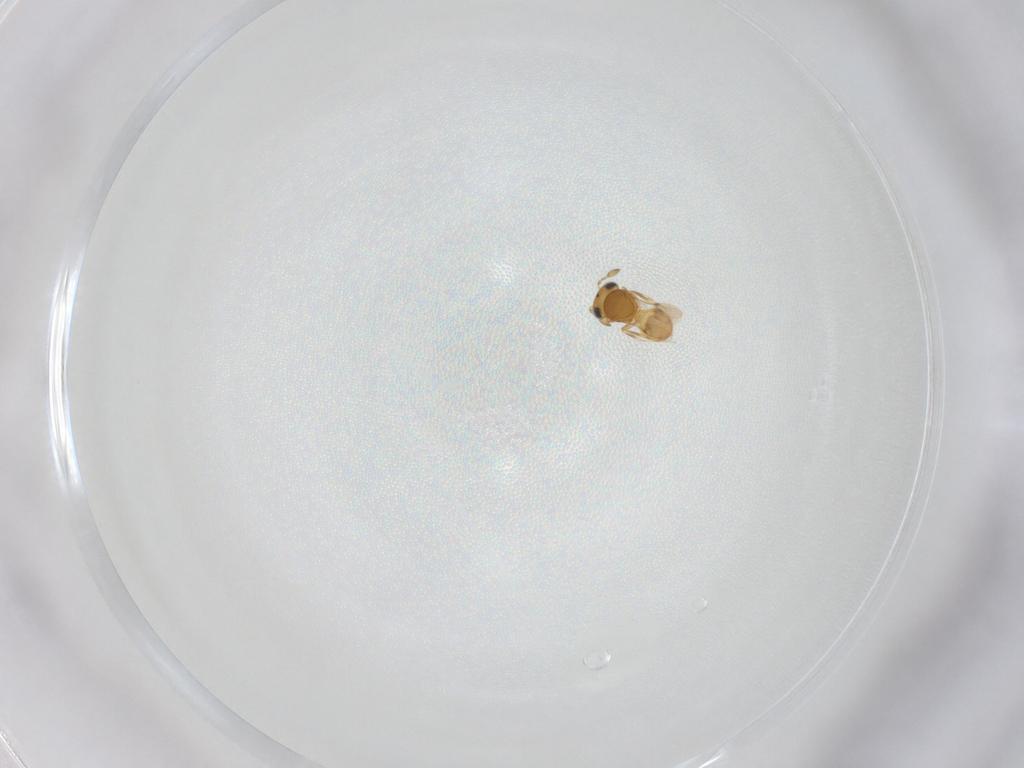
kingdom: Animalia
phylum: Arthropoda
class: Insecta
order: Hymenoptera
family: Scelionidae
